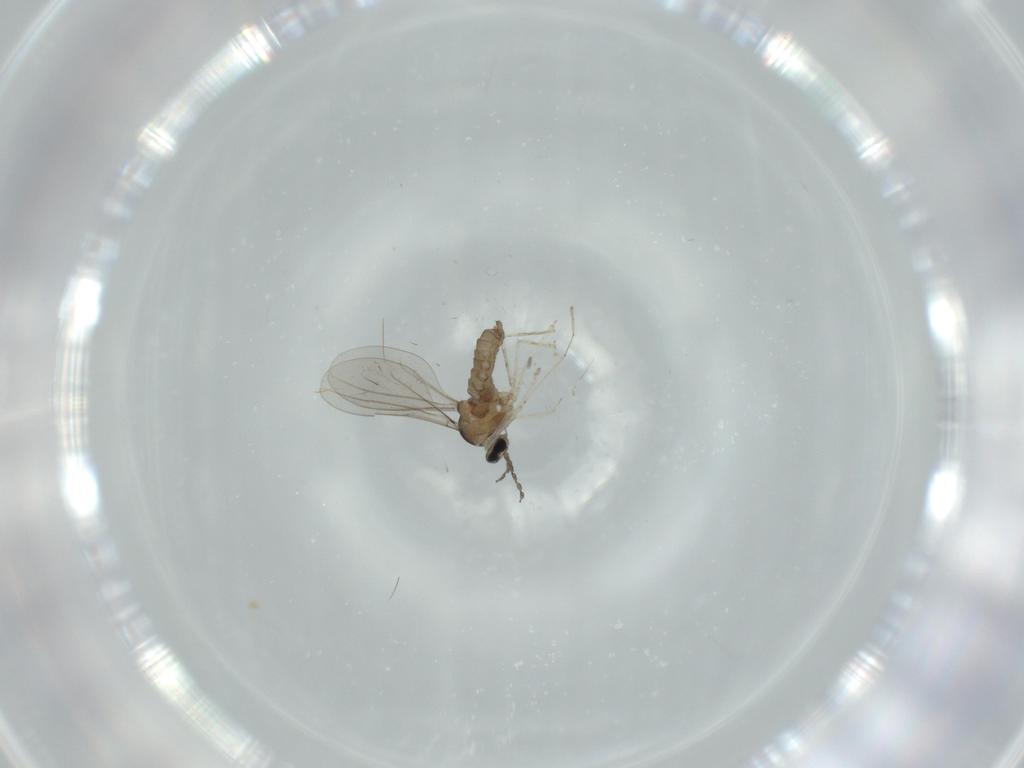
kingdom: Animalia
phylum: Arthropoda
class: Insecta
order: Diptera
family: Cecidomyiidae
